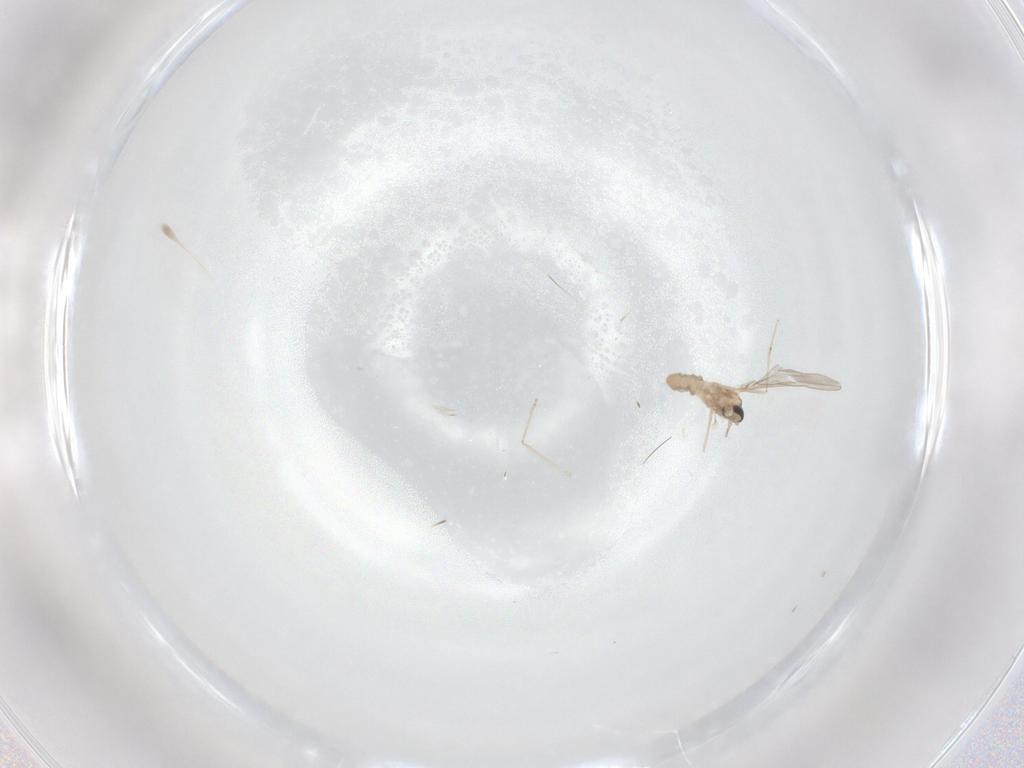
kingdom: Animalia
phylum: Arthropoda
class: Insecta
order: Diptera
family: Cecidomyiidae
